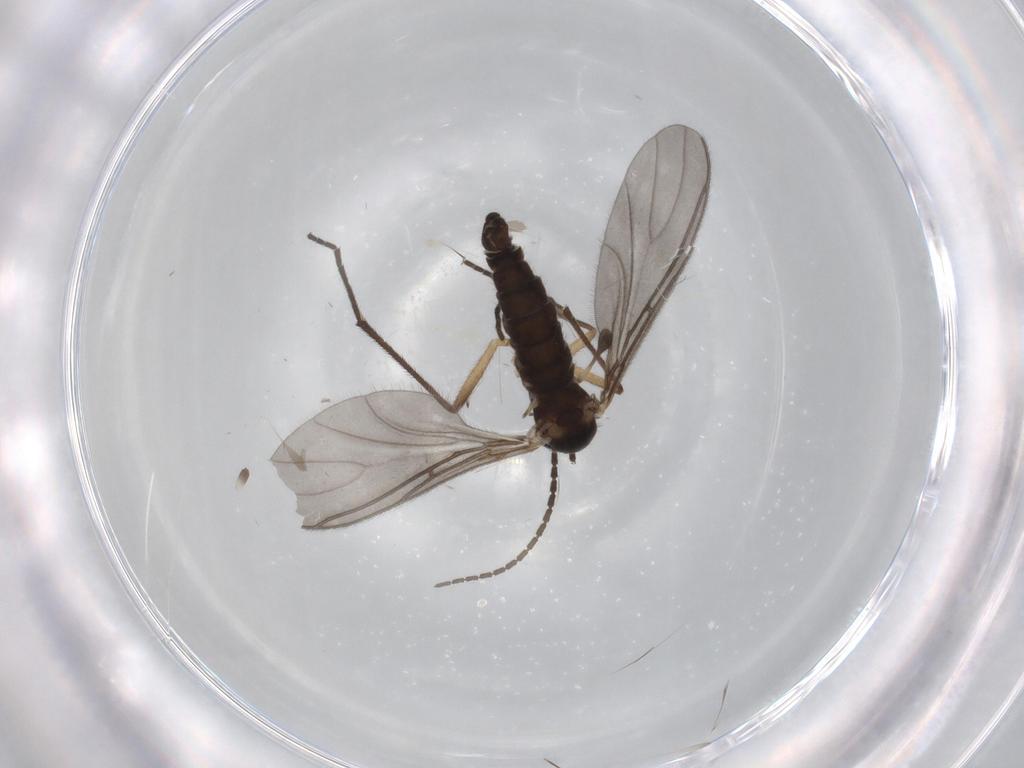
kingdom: Animalia
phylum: Arthropoda
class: Insecta
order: Diptera
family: Sciaridae
